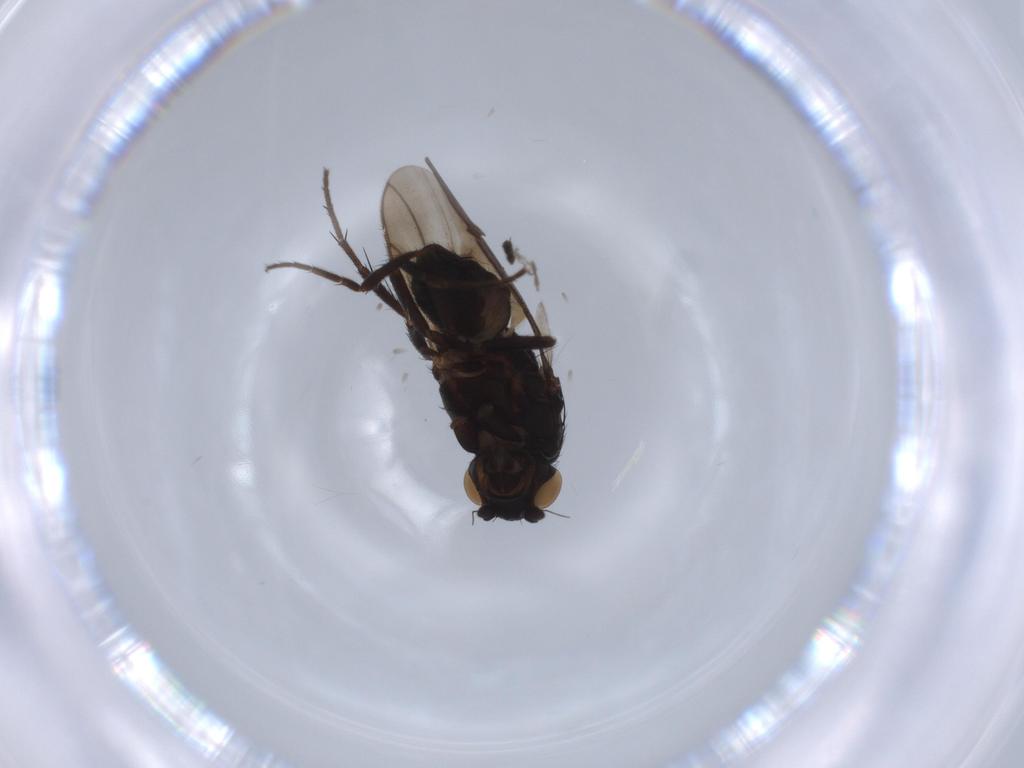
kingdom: Animalia
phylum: Arthropoda
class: Insecta
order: Diptera
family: Sphaeroceridae
